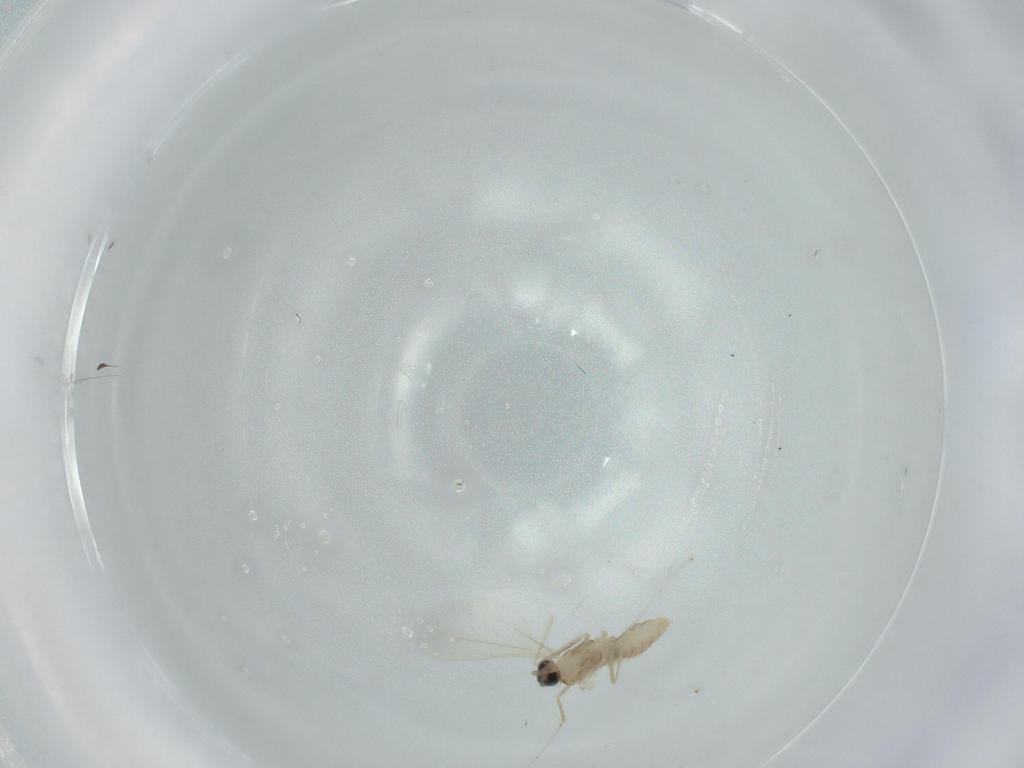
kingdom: Animalia
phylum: Arthropoda
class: Insecta
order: Diptera
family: Cecidomyiidae
